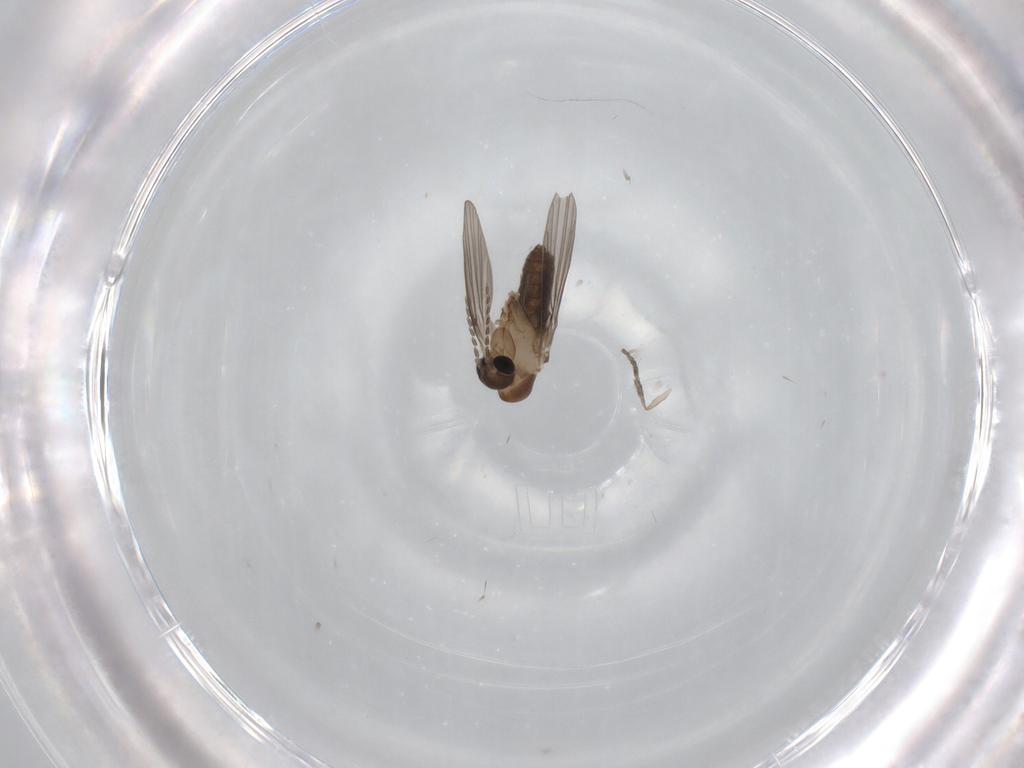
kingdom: Animalia
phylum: Arthropoda
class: Insecta
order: Diptera
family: Psychodidae
